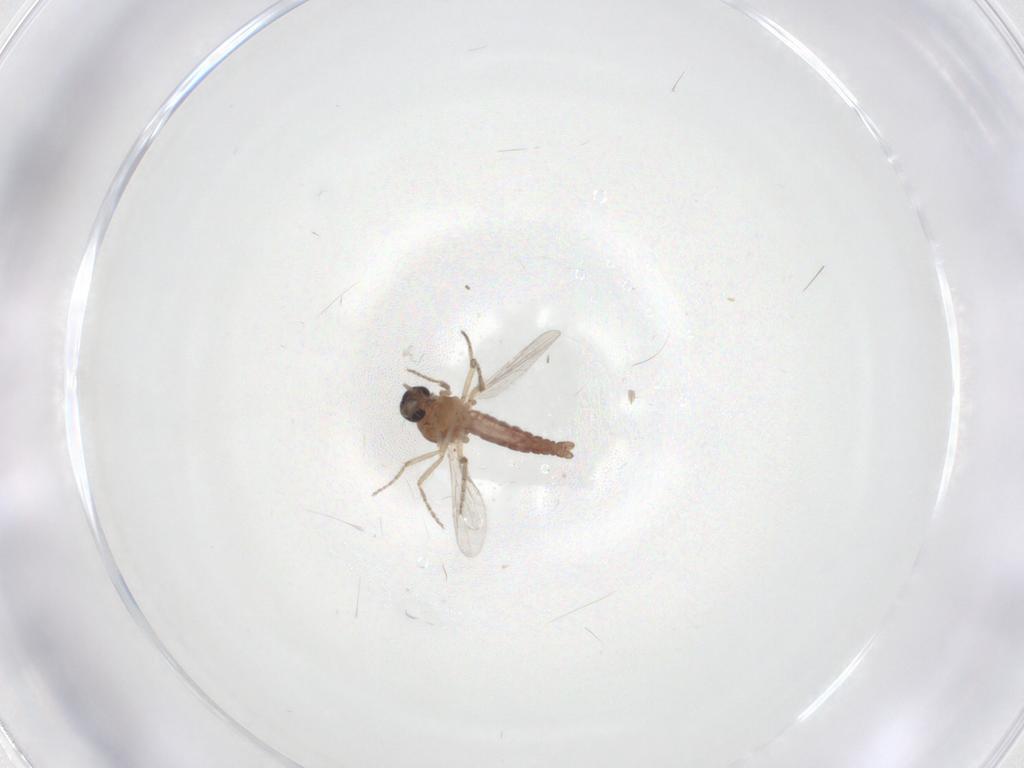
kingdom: Animalia
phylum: Arthropoda
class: Insecta
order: Diptera
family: Ceratopogonidae
